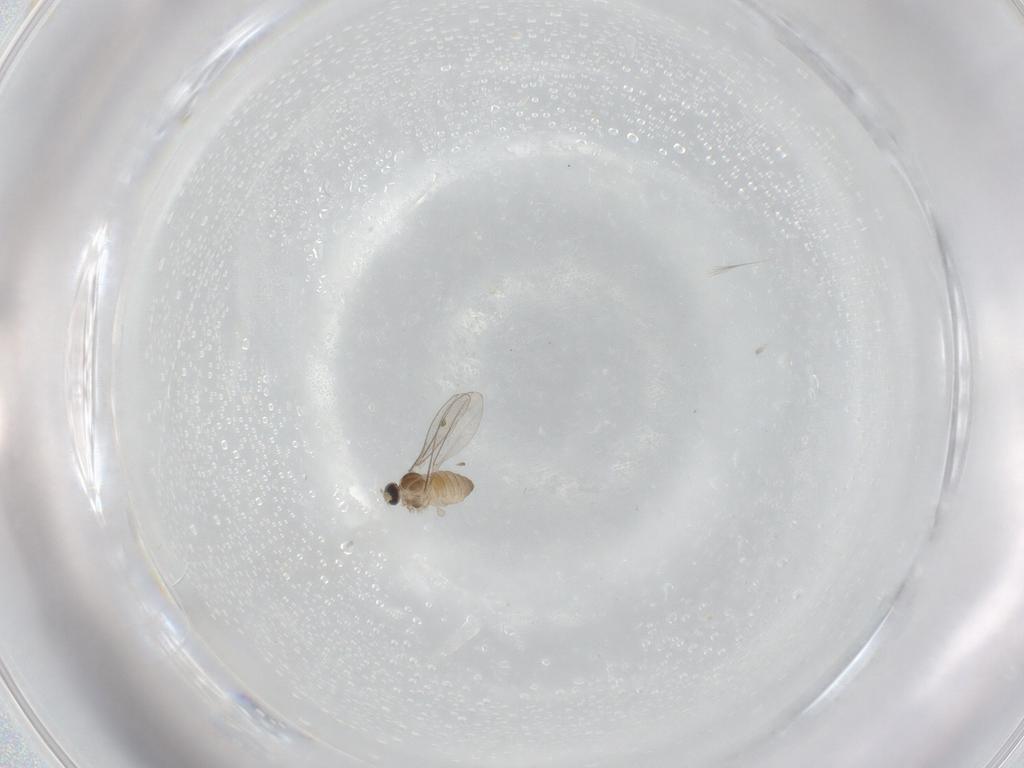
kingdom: Animalia
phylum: Arthropoda
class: Insecta
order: Diptera
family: Cecidomyiidae
